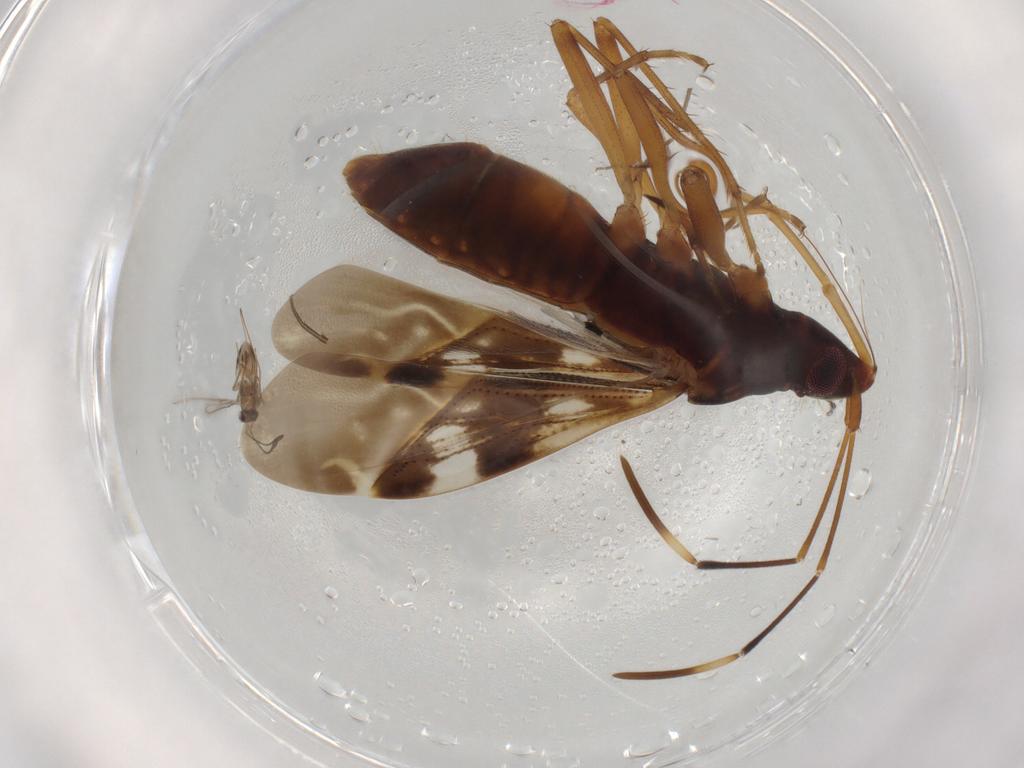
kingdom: Animalia
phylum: Arthropoda
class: Insecta
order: Hemiptera
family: Rhyparochromidae
